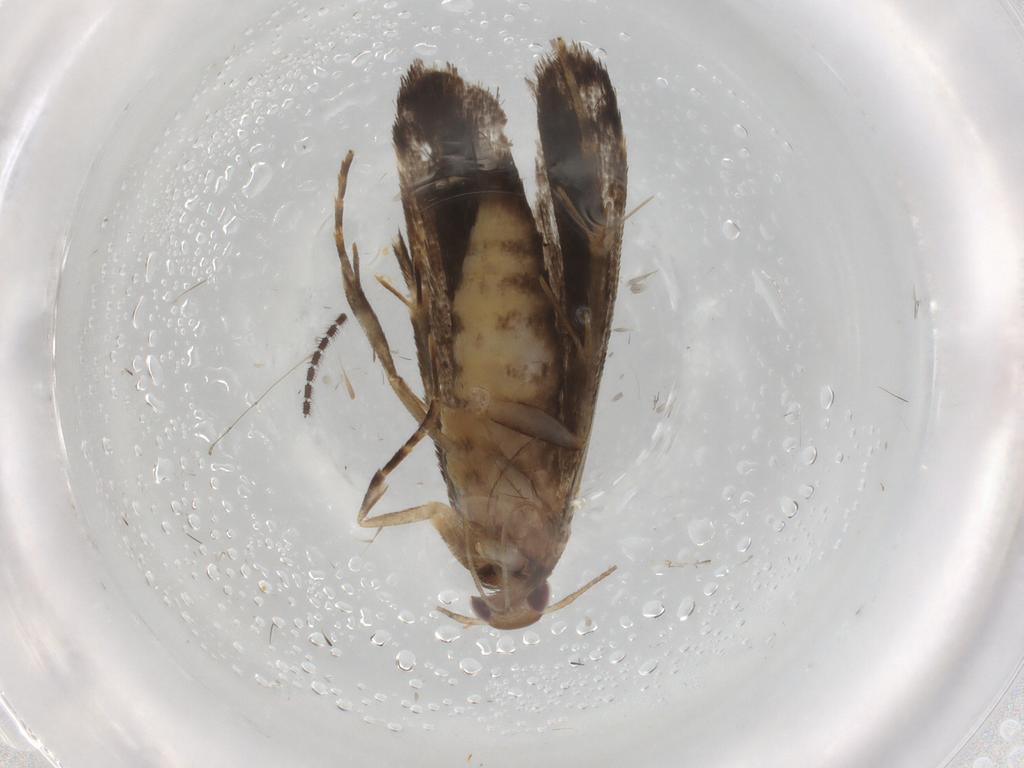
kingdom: Animalia
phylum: Arthropoda
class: Insecta
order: Lepidoptera
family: Gelechiidae
